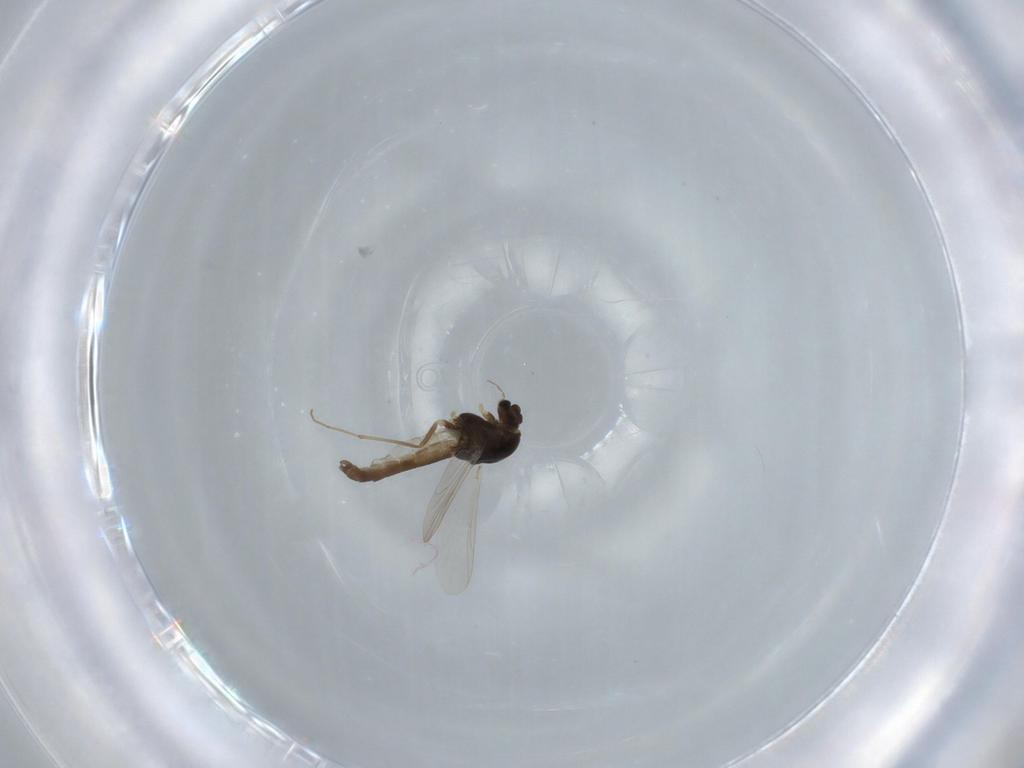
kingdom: Animalia
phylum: Arthropoda
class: Insecta
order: Diptera
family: Chironomidae
